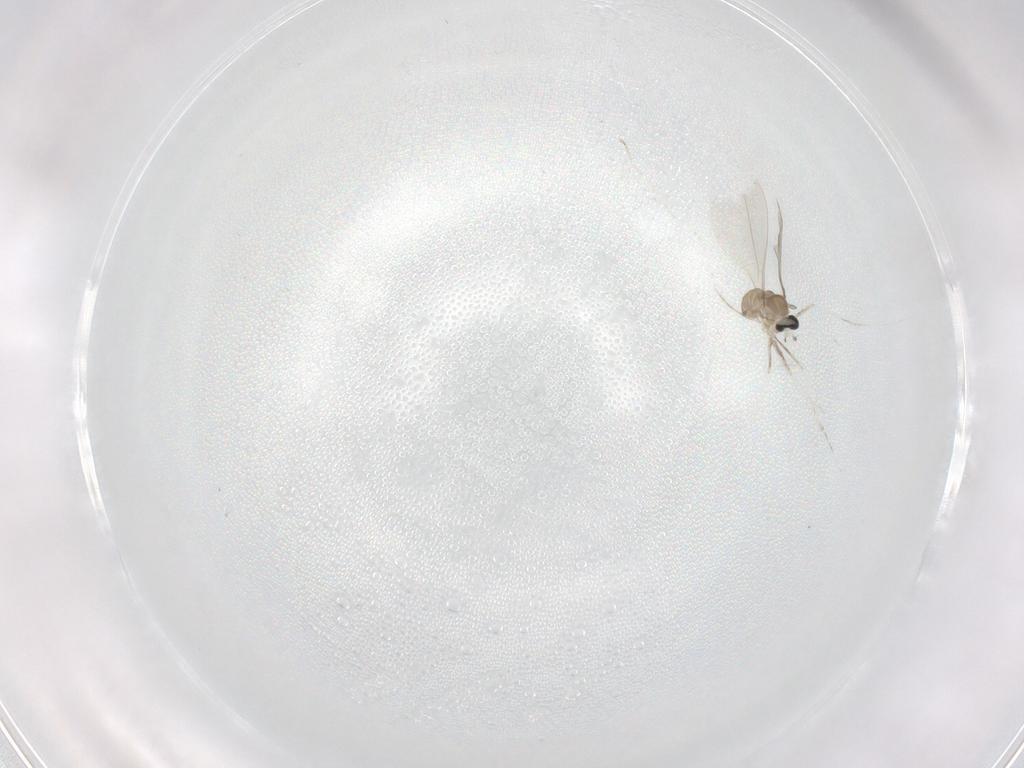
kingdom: Animalia
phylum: Arthropoda
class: Insecta
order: Diptera
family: Cecidomyiidae
